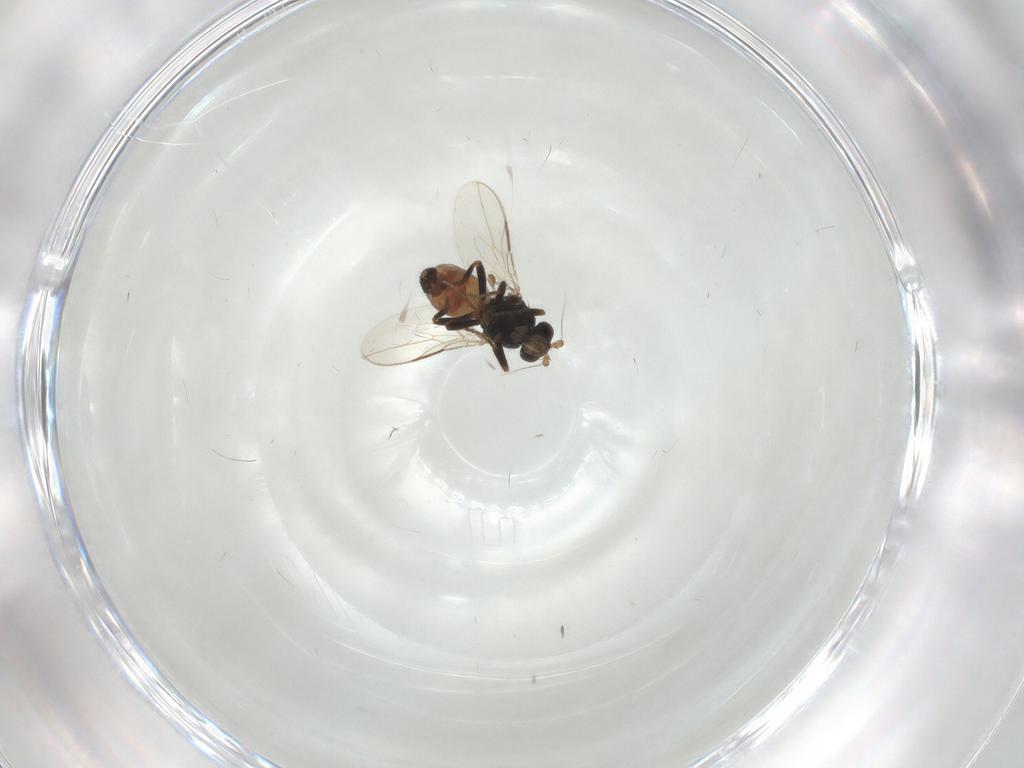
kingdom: Animalia
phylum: Arthropoda
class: Insecta
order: Diptera
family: Sphaeroceridae
